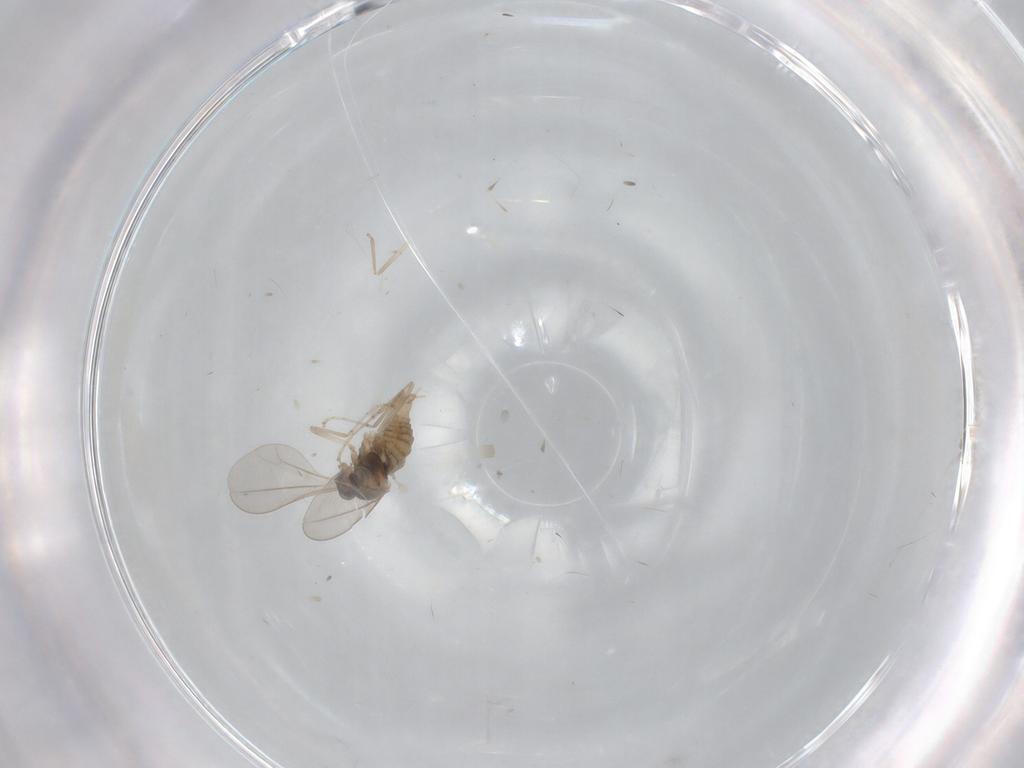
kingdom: Animalia
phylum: Arthropoda
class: Insecta
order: Diptera
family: Cecidomyiidae
